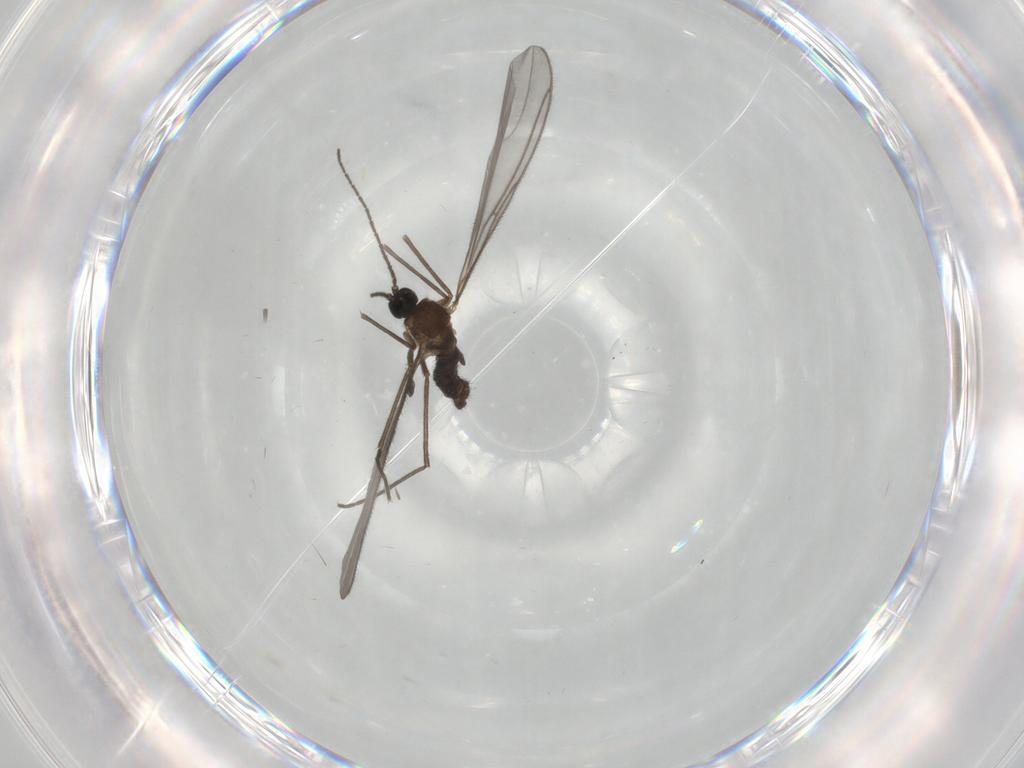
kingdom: Animalia
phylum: Arthropoda
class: Insecta
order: Diptera
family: Sciaridae
